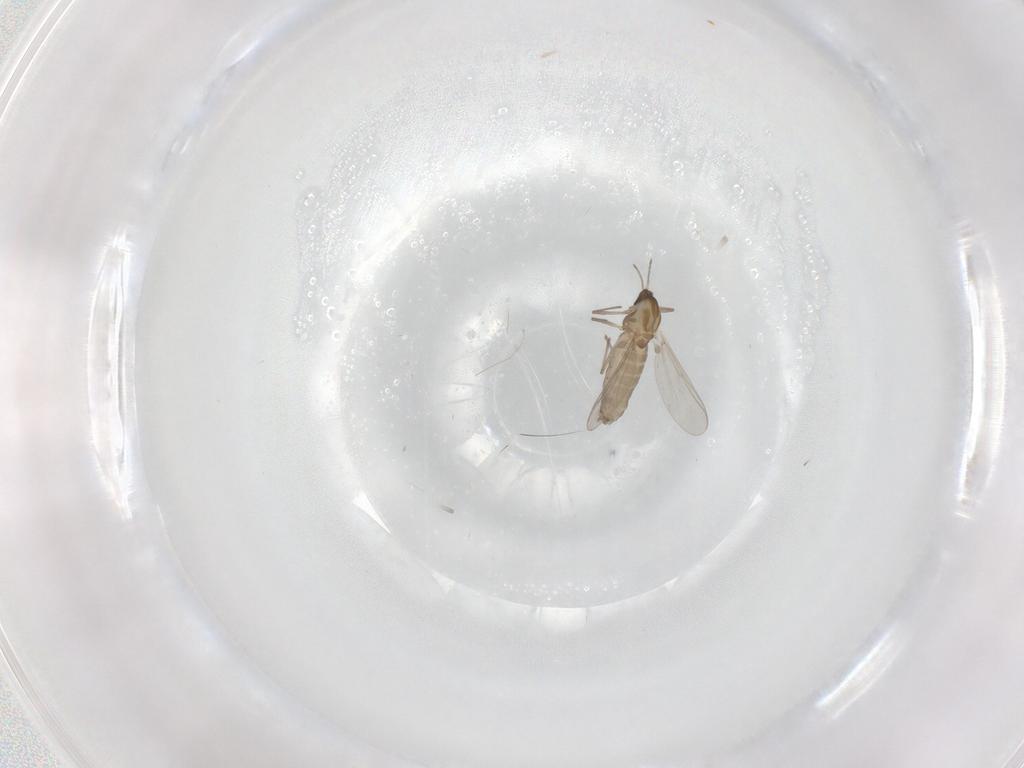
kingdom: Animalia
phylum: Arthropoda
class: Insecta
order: Diptera
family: Cecidomyiidae
